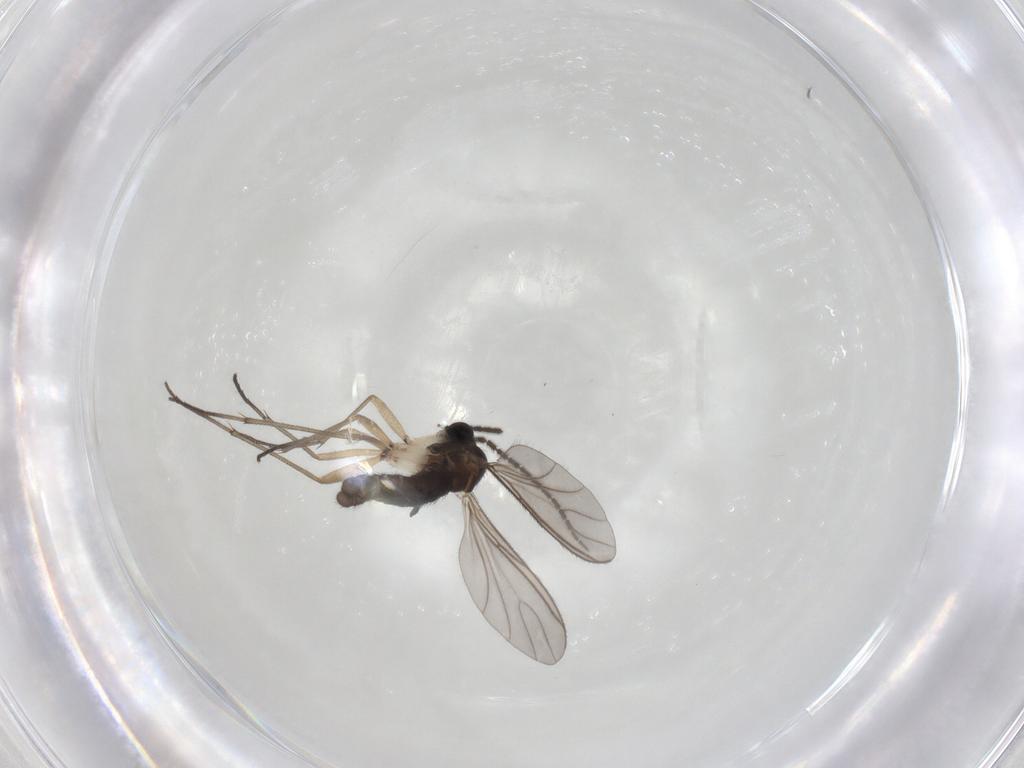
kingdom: Animalia
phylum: Arthropoda
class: Insecta
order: Diptera
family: Sciaridae
